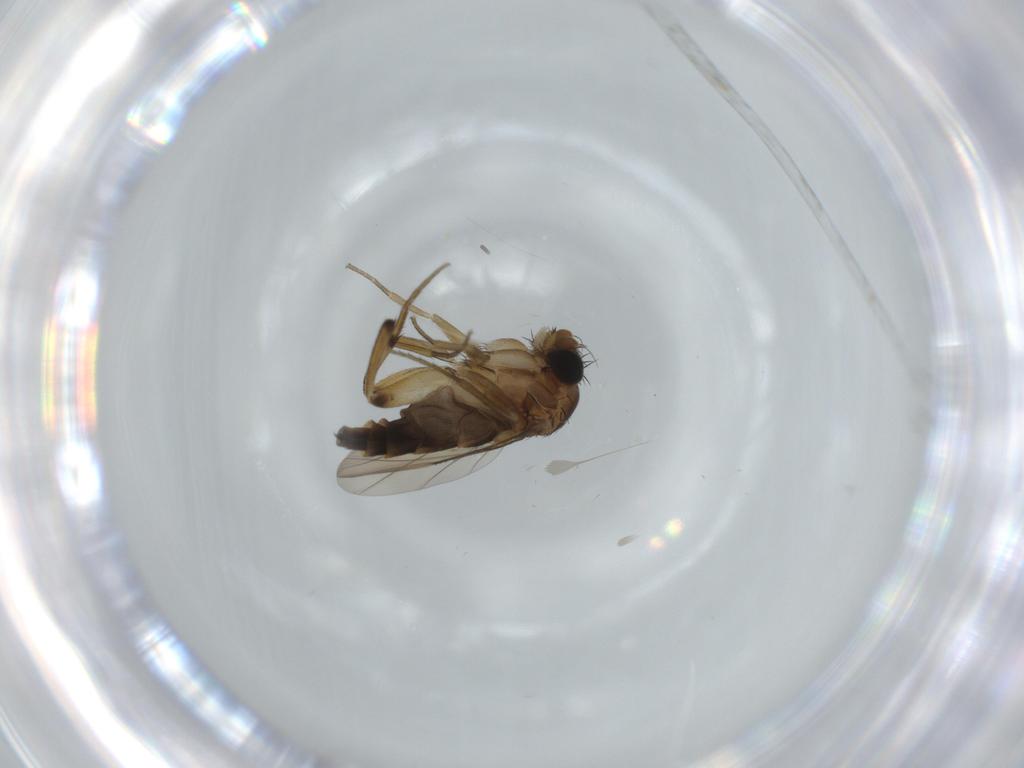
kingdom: Animalia
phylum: Arthropoda
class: Insecta
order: Diptera
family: Phoridae
